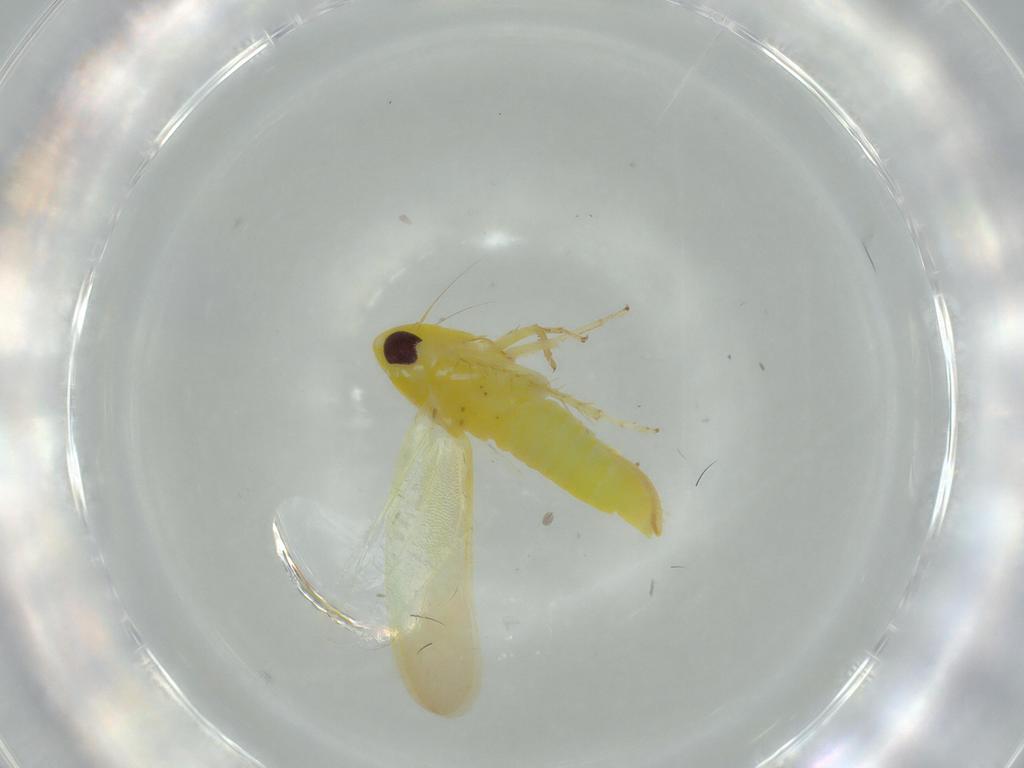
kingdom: Animalia
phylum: Arthropoda
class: Insecta
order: Hemiptera
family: Cicadellidae
